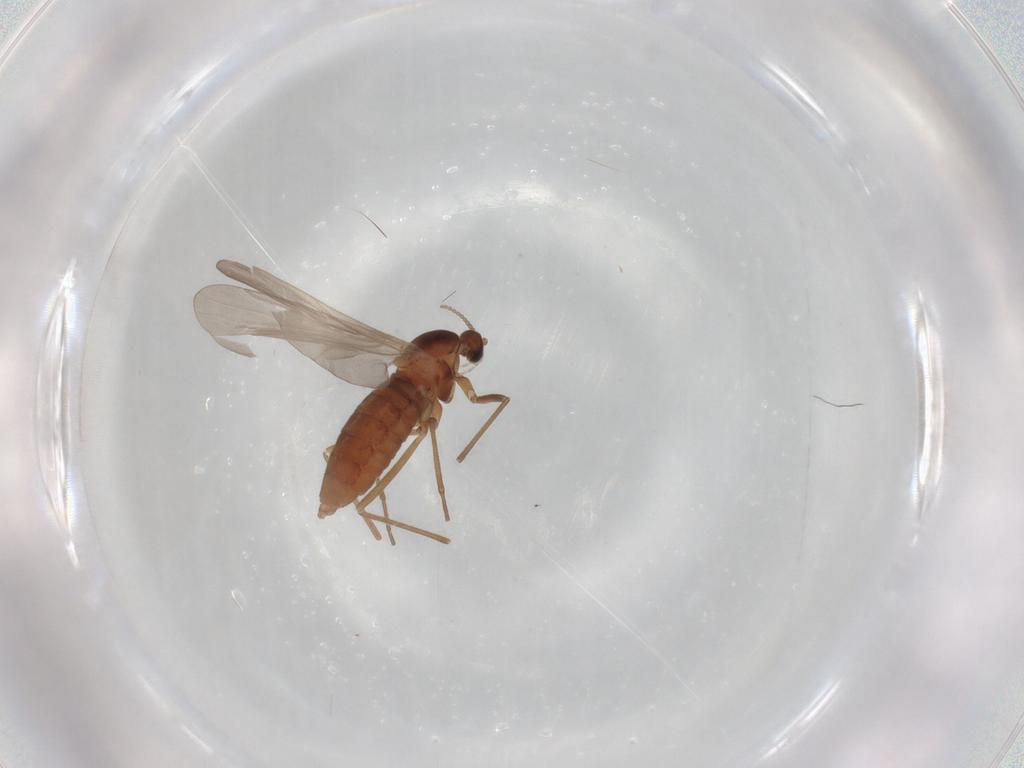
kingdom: Animalia
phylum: Arthropoda
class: Insecta
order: Diptera
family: Cecidomyiidae
